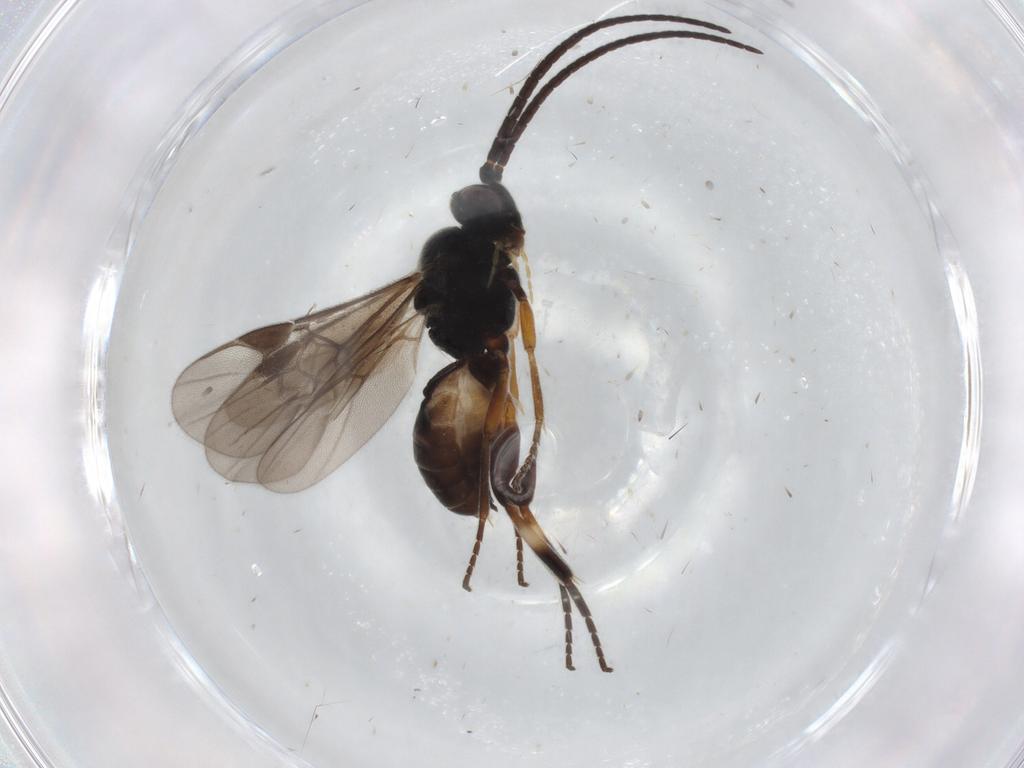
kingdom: Animalia
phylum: Arthropoda
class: Insecta
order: Hymenoptera
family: Braconidae
